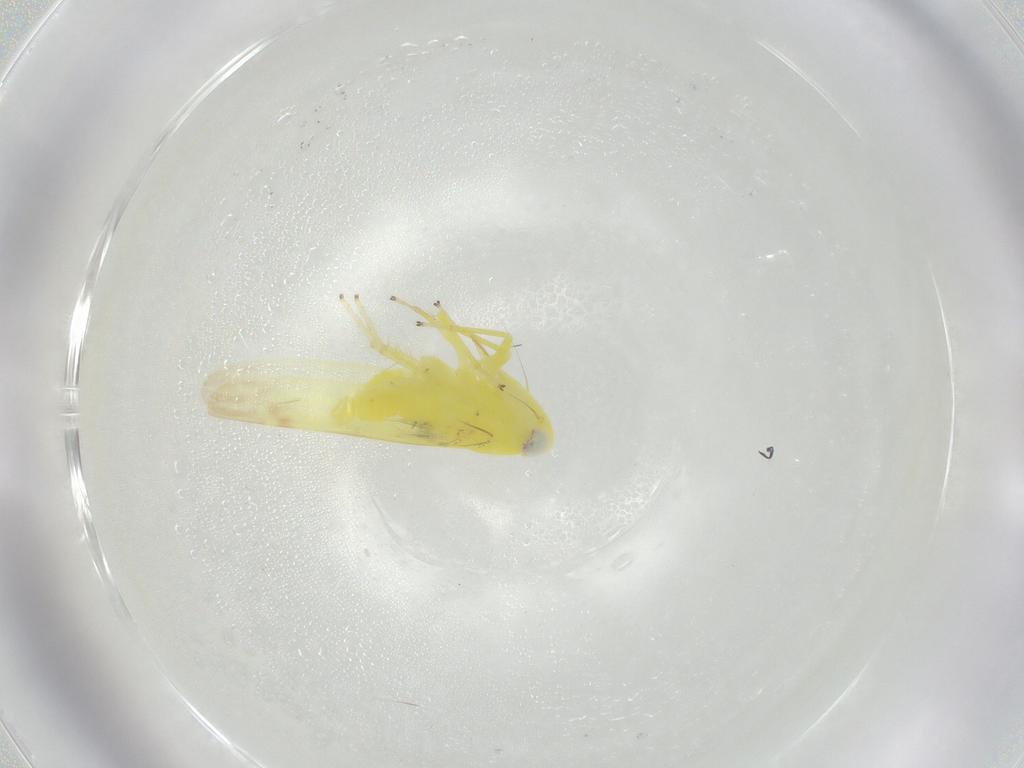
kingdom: Animalia
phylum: Arthropoda
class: Insecta
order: Hemiptera
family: Cicadellidae
